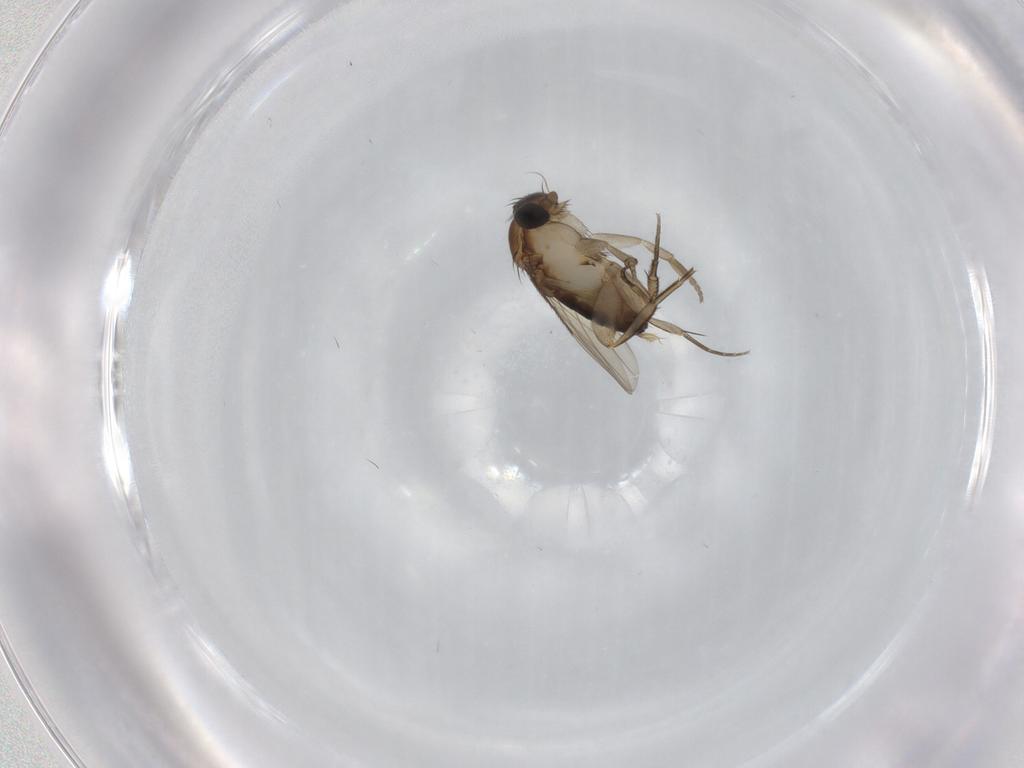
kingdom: Animalia
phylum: Arthropoda
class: Insecta
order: Diptera
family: Phoridae
